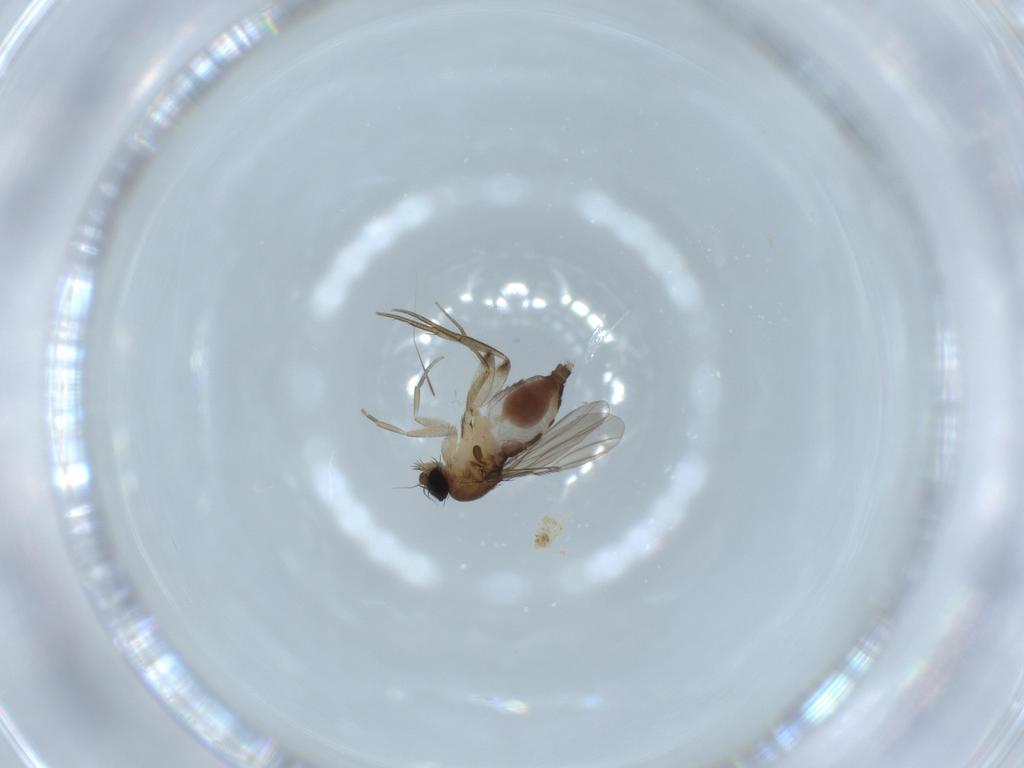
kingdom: Animalia
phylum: Arthropoda
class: Insecta
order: Diptera
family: Phoridae
